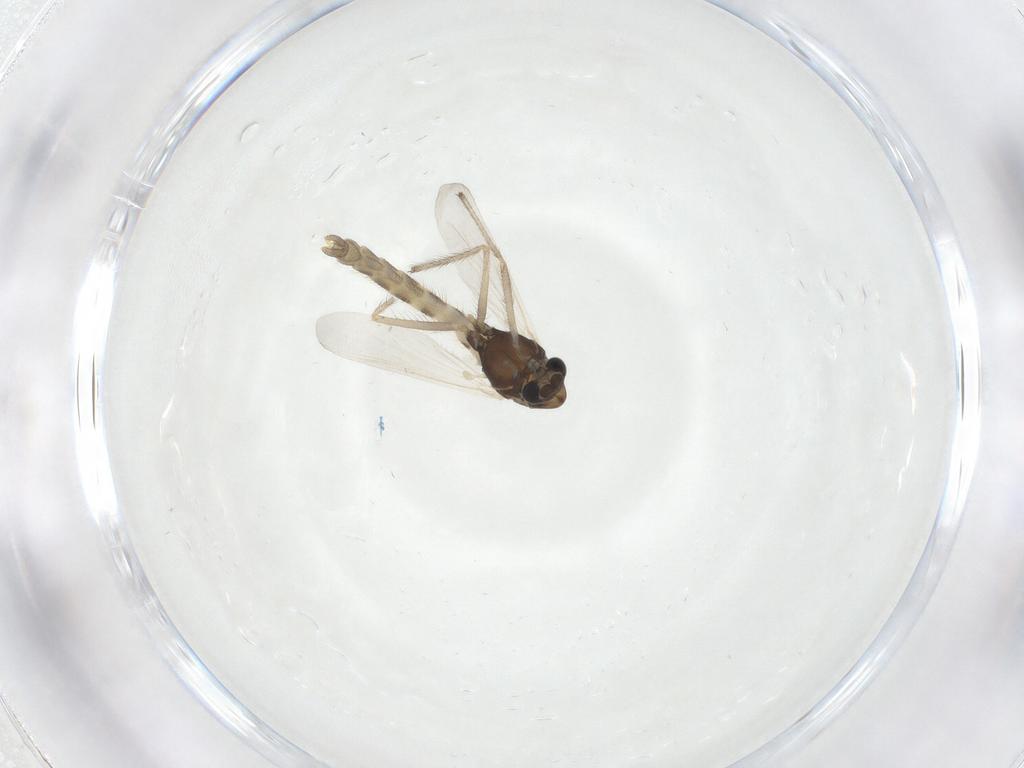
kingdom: Animalia
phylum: Arthropoda
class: Insecta
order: Diptera
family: Chironomidae
